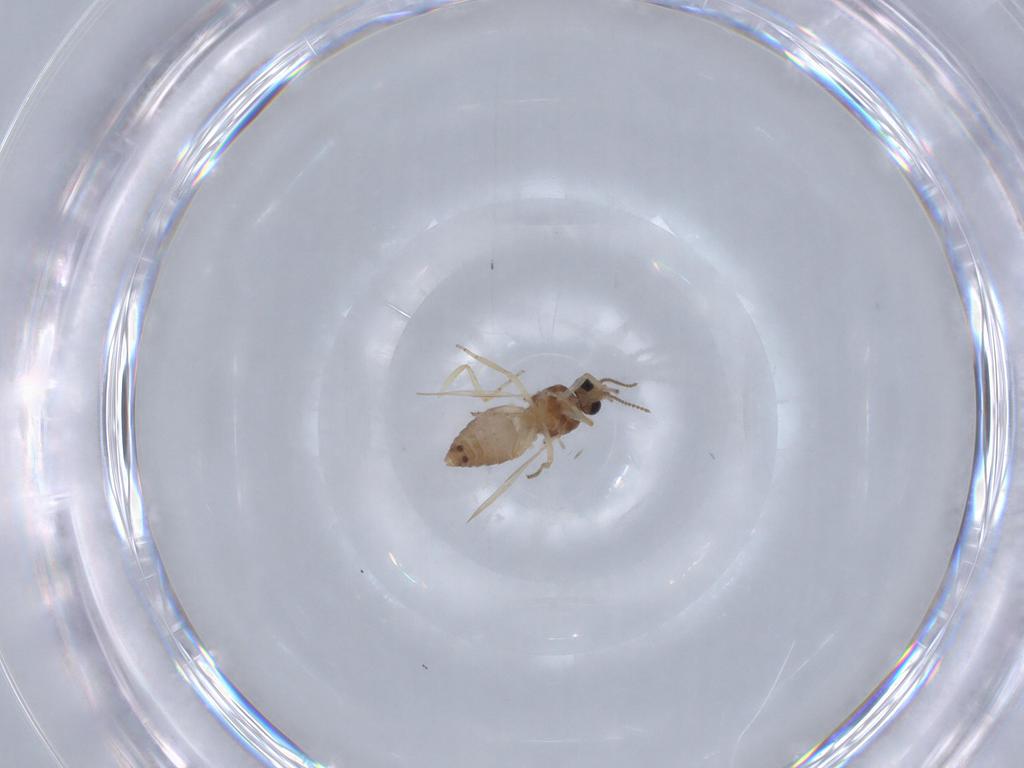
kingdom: Animalia
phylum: Arthropoda
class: Insecta
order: Diptera
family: Ceratopogonidae
